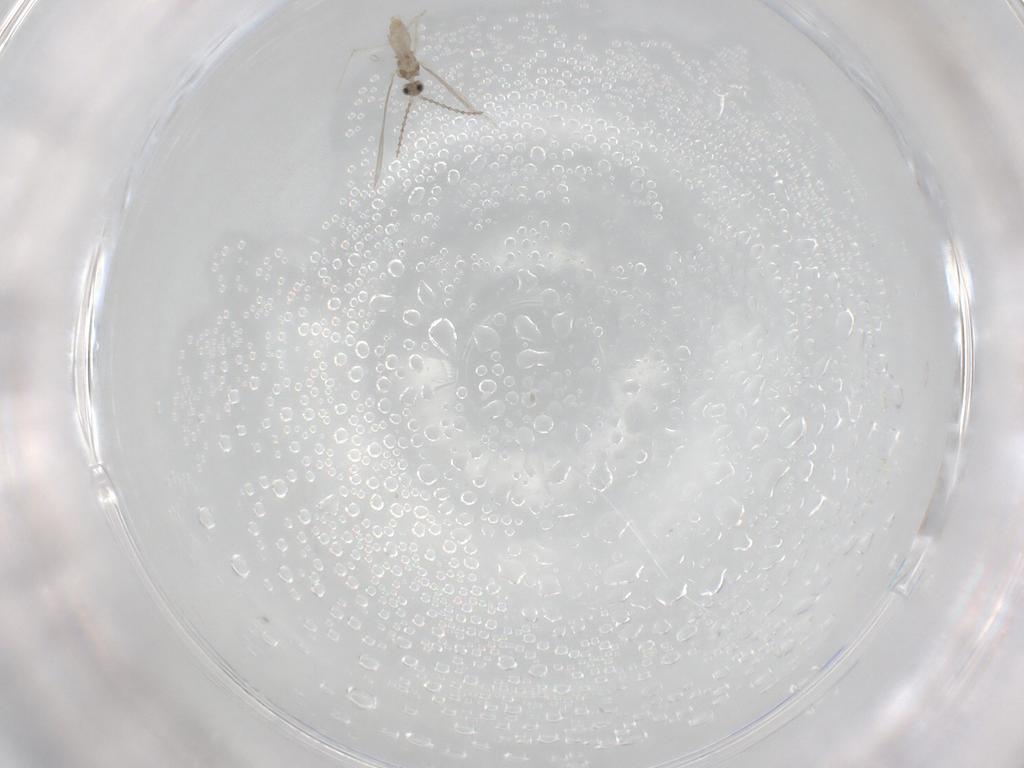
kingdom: Animalia
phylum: Arthropoda
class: Insecta
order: Diptera
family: Cecidomyiidae
